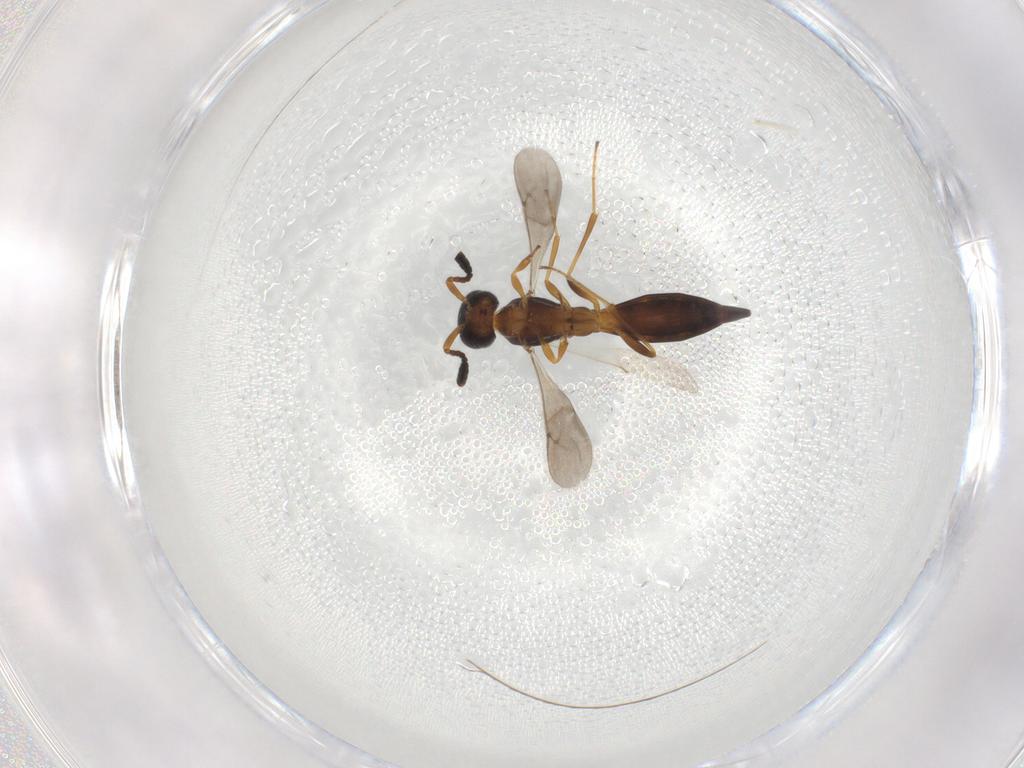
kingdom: Animalia
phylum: Arthropoda
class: Insecta
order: Hymenoptera
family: Scelionidae
